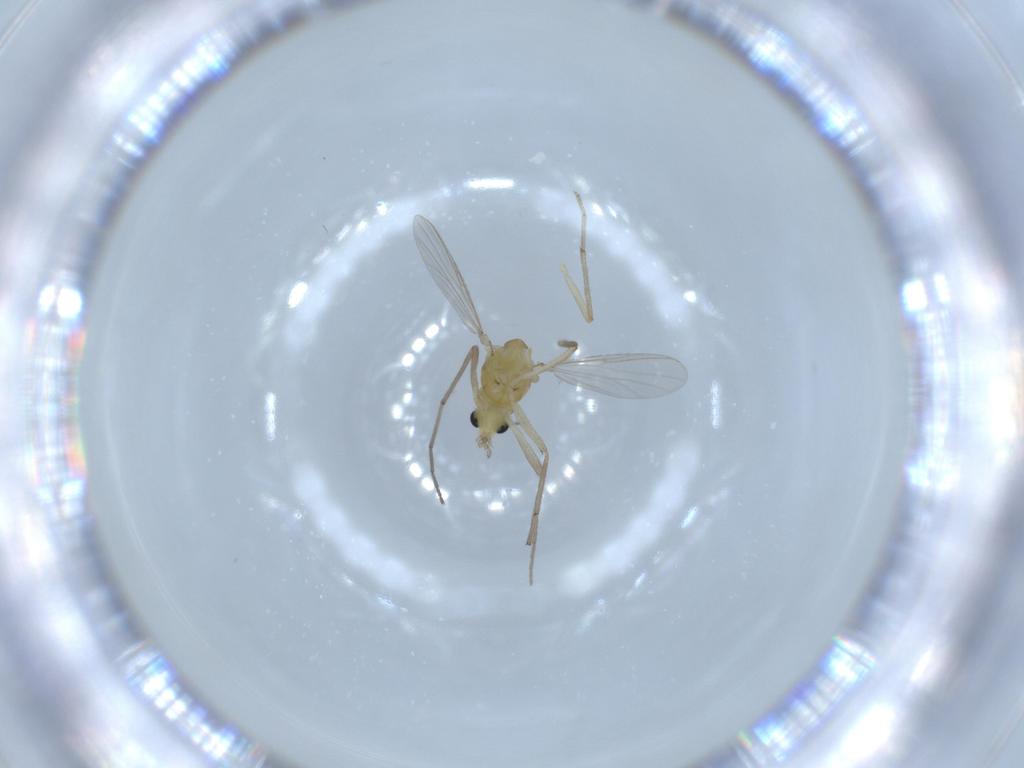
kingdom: Animalia
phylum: Arthropoda
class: Insecta
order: Diptera
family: Chironomidae
